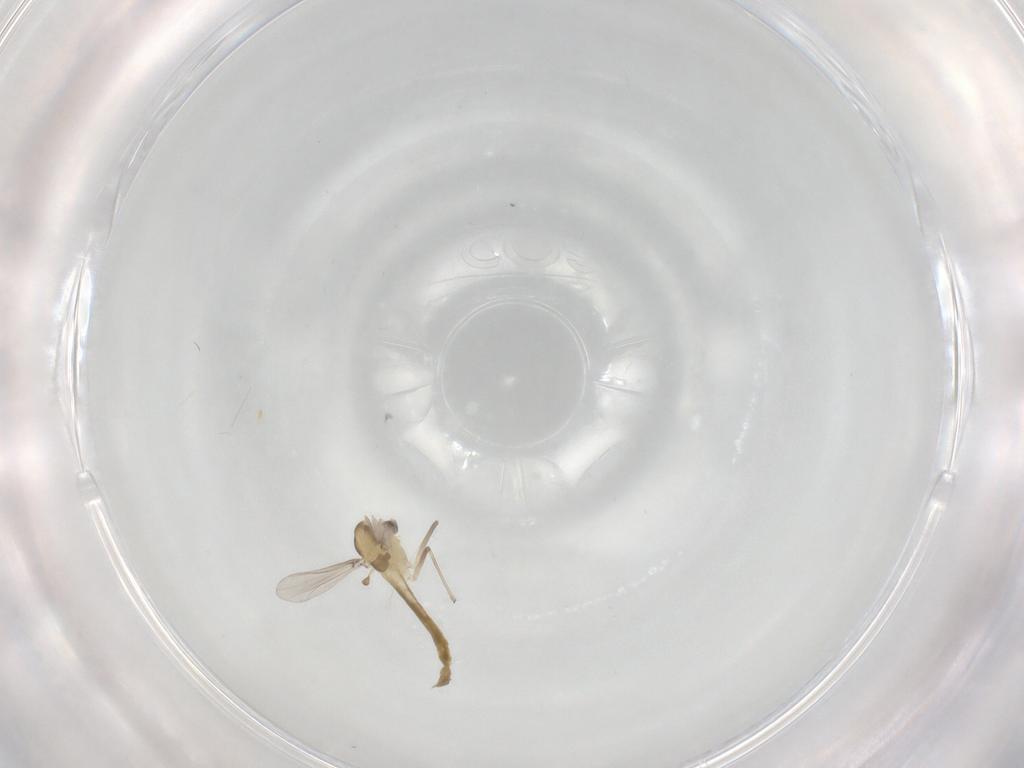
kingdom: Animalia
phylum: Arthropoda
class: Insecta
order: Diptera
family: Chironomidae
